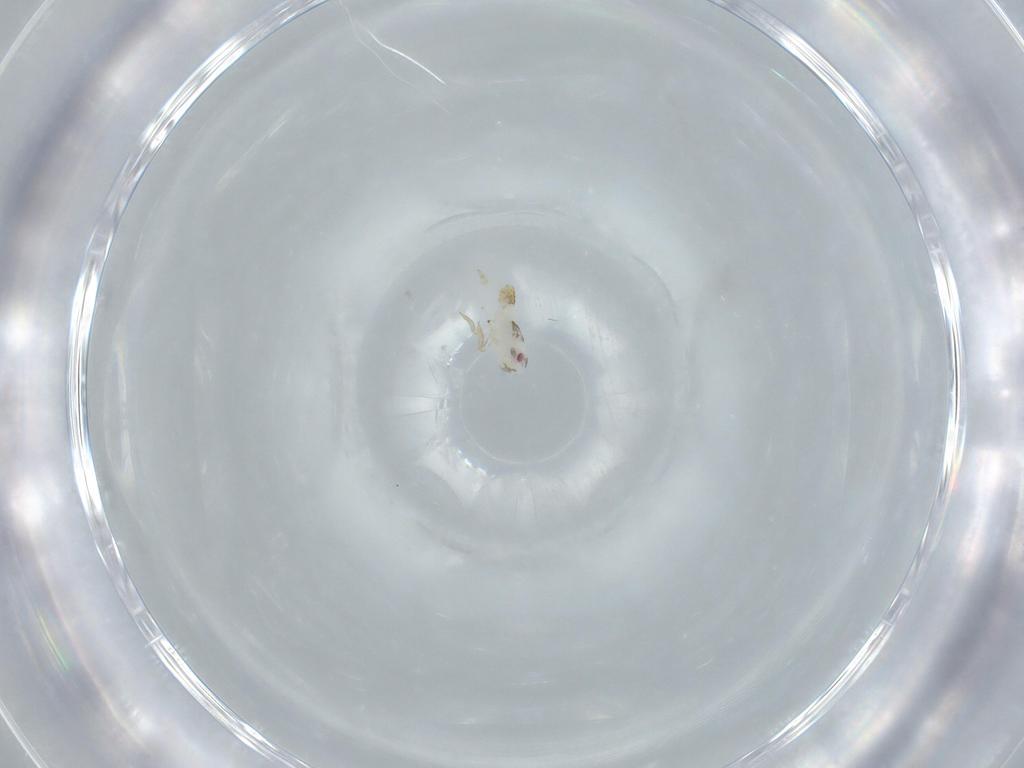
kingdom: Animalia
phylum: Arthropoda
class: Insecta
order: Hemiptera
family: Delphacidae
